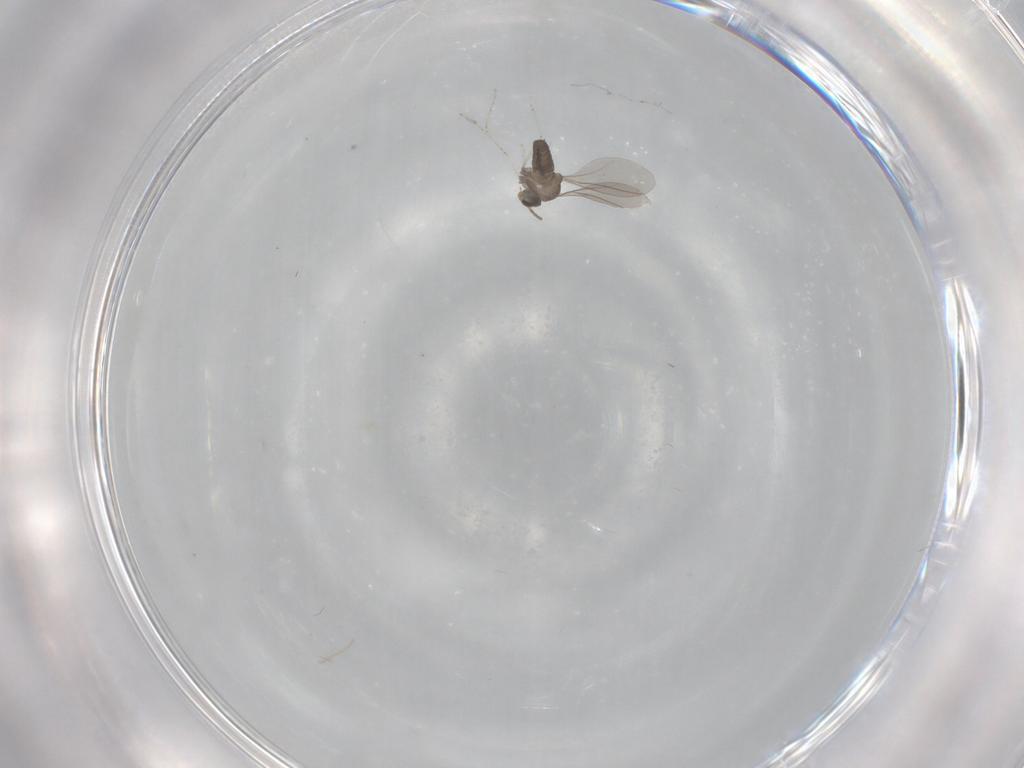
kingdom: Animalia
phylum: Arthropoda
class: Insecta
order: Diptera
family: Cecidomyiidae
